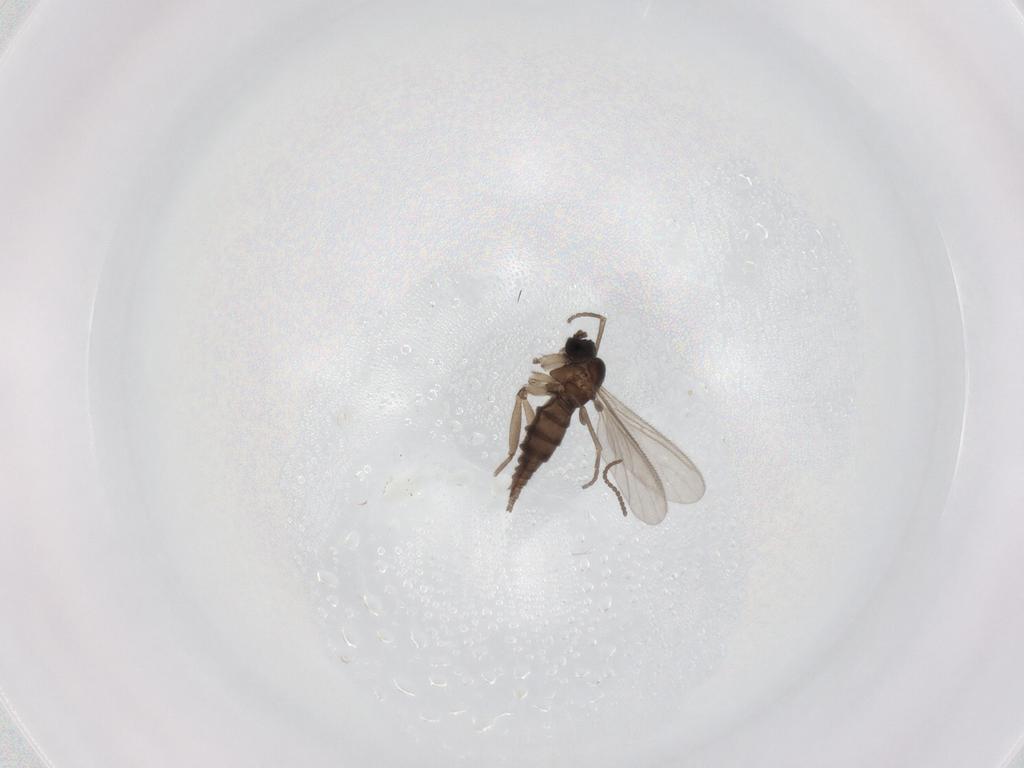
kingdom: Animalia
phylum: Arthropoda
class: Insecta
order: Diptera
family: Sciaridae
